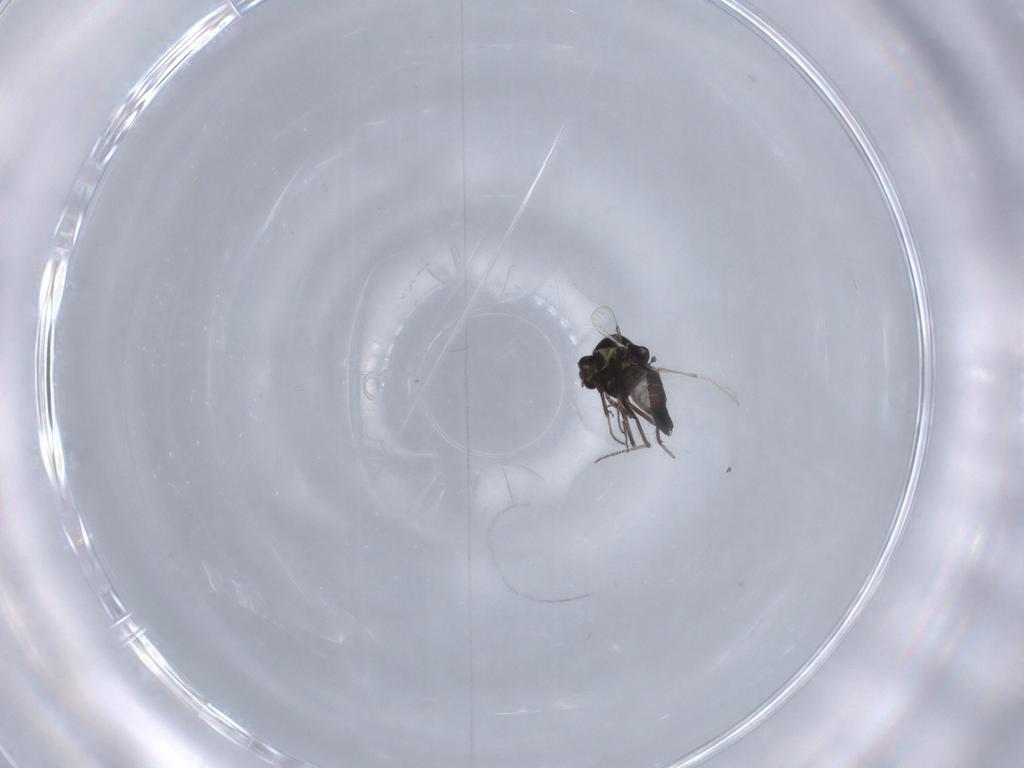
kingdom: Animalia
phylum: Arthropoda
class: Insecta
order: Diptera
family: Ceratopogonidae
